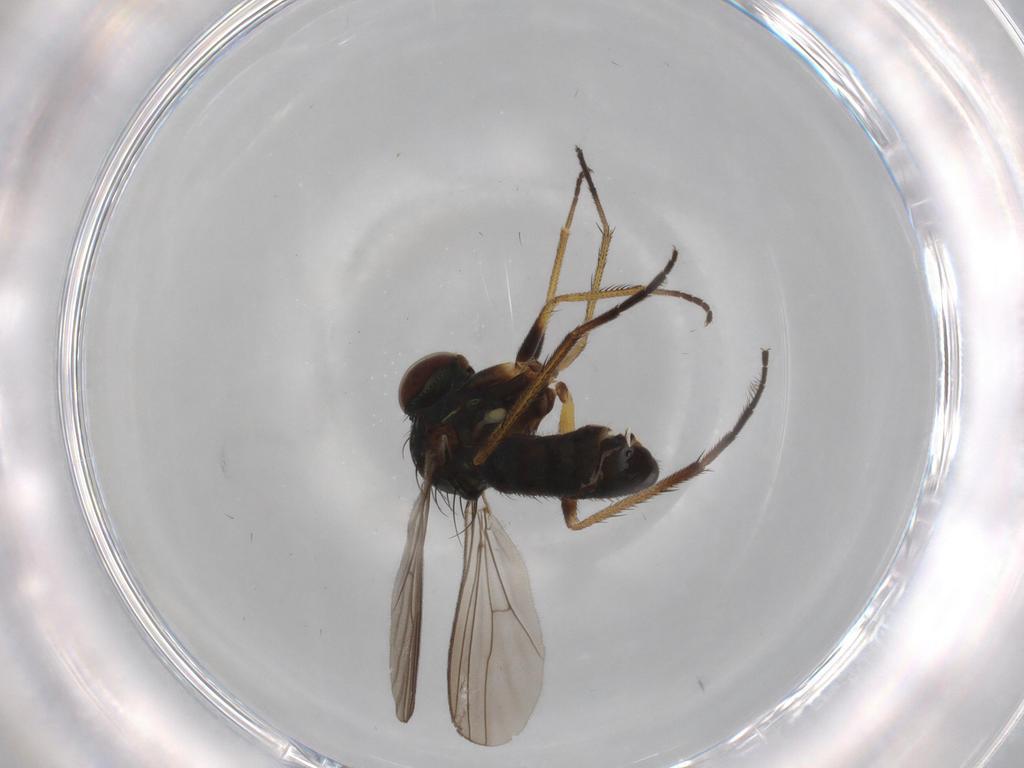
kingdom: Animalia
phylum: Arthropoda
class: Insecta
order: Diptera
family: Dolichopodidae
